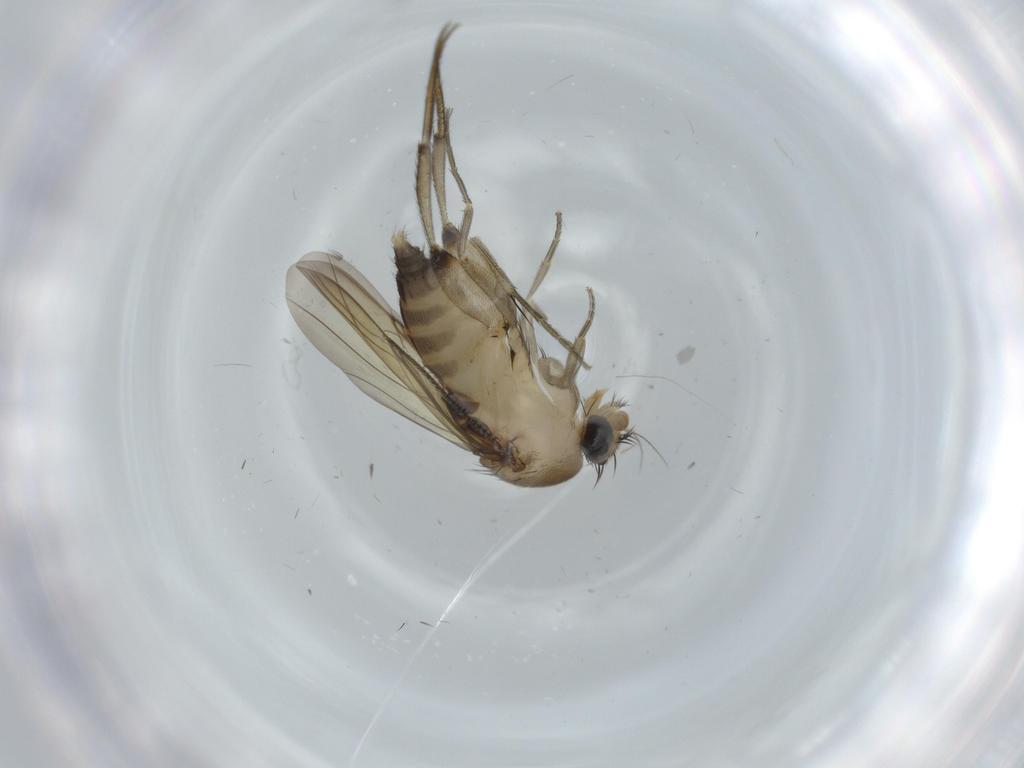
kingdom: Animalia
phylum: Arthropoda
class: Insecta
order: Diptera
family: Phoridae
